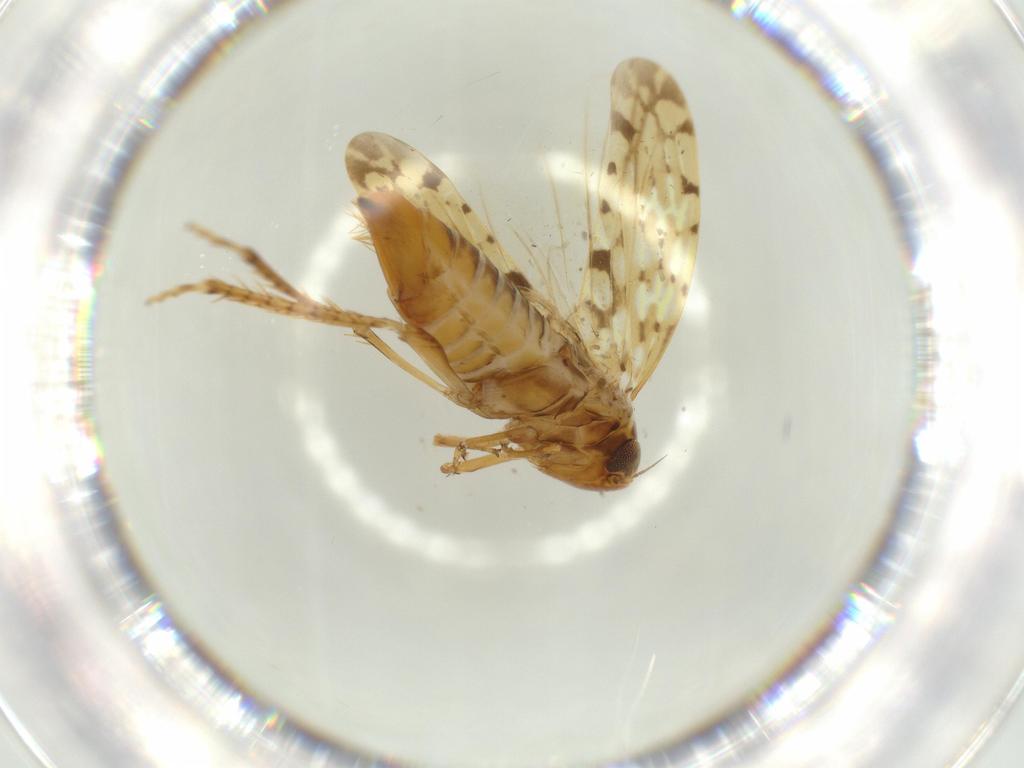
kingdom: Animalia
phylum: Arthropoda
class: Insecta
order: Hemiptera
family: Cicadellidae
